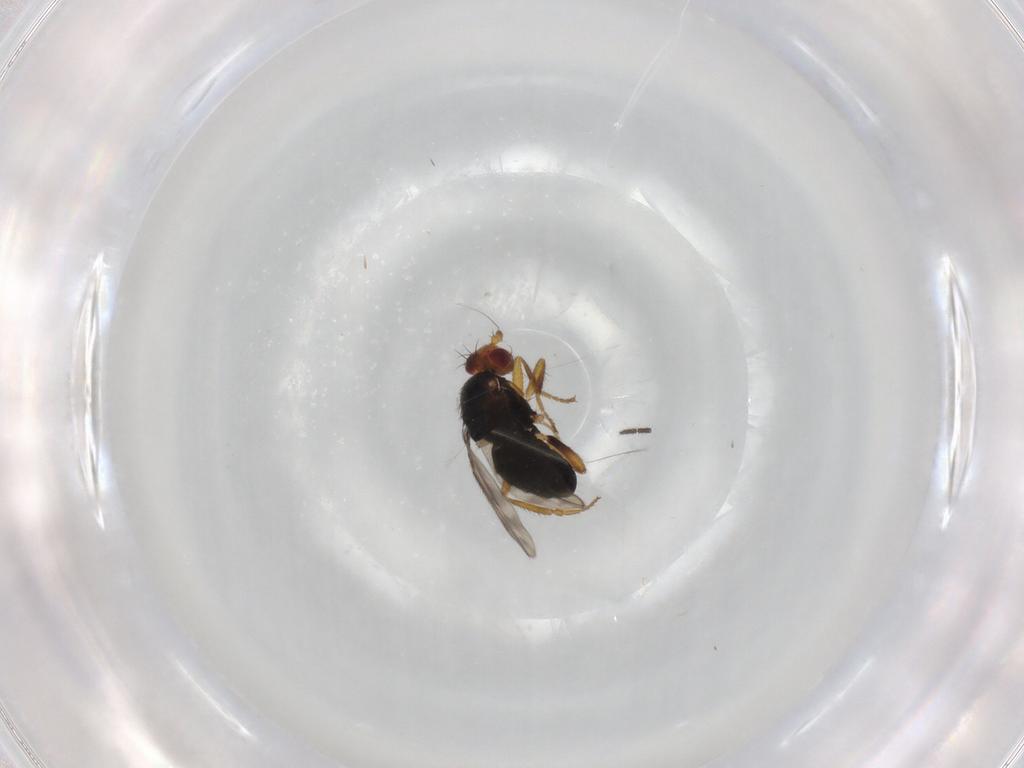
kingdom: Animalia
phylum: Arthropoda
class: Insecta
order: Diptera
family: Sphaeroceridae
